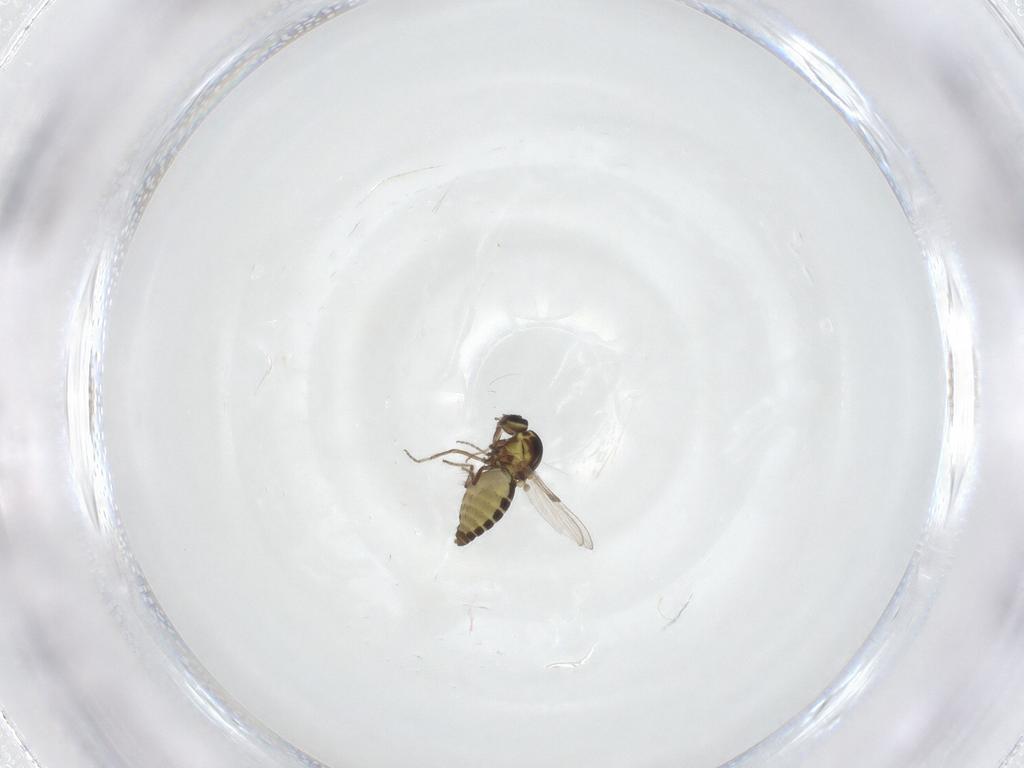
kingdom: Animalia
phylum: Arthropoda
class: Insecta
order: Diptera
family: Ceratopogonidae
